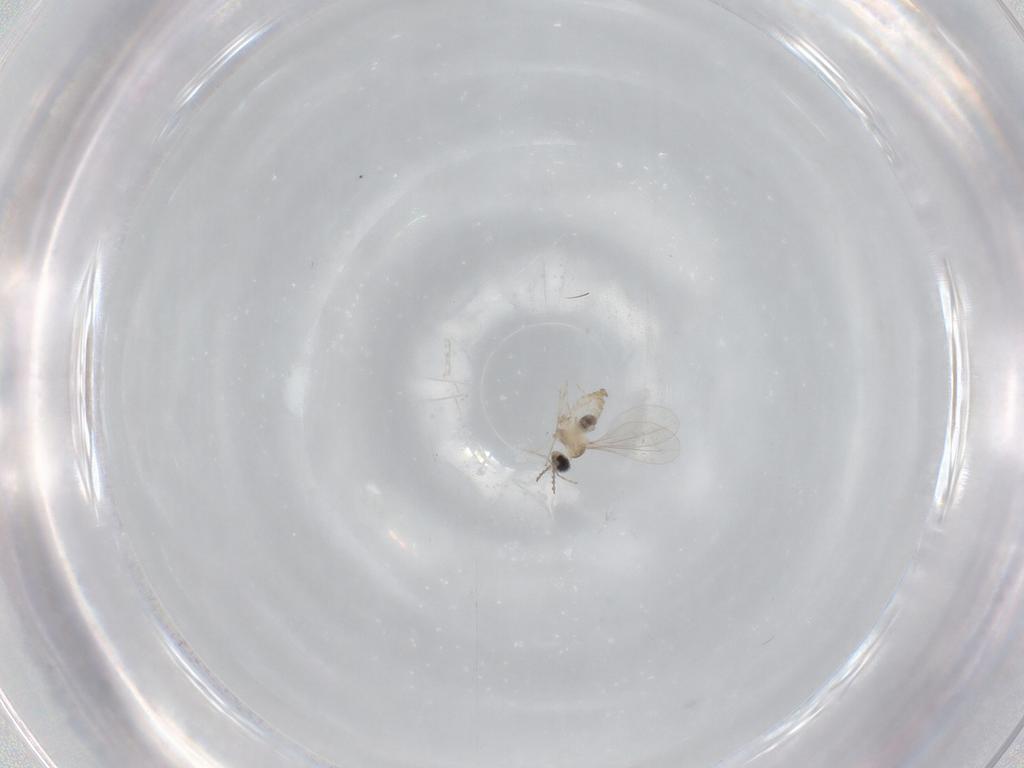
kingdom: Animalia
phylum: Arthropoda
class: Insecta
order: Diptera
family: Cecidomyiidae
